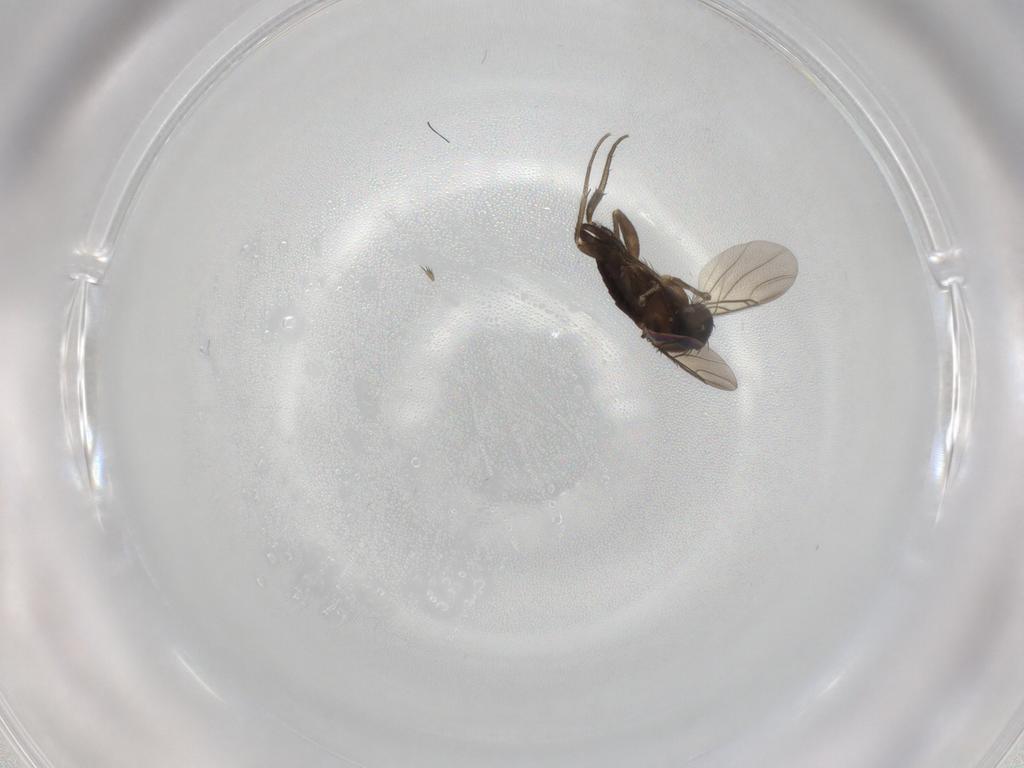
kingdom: Animalia
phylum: Arthropoda
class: Insecta
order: Diptera
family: Phoridae
